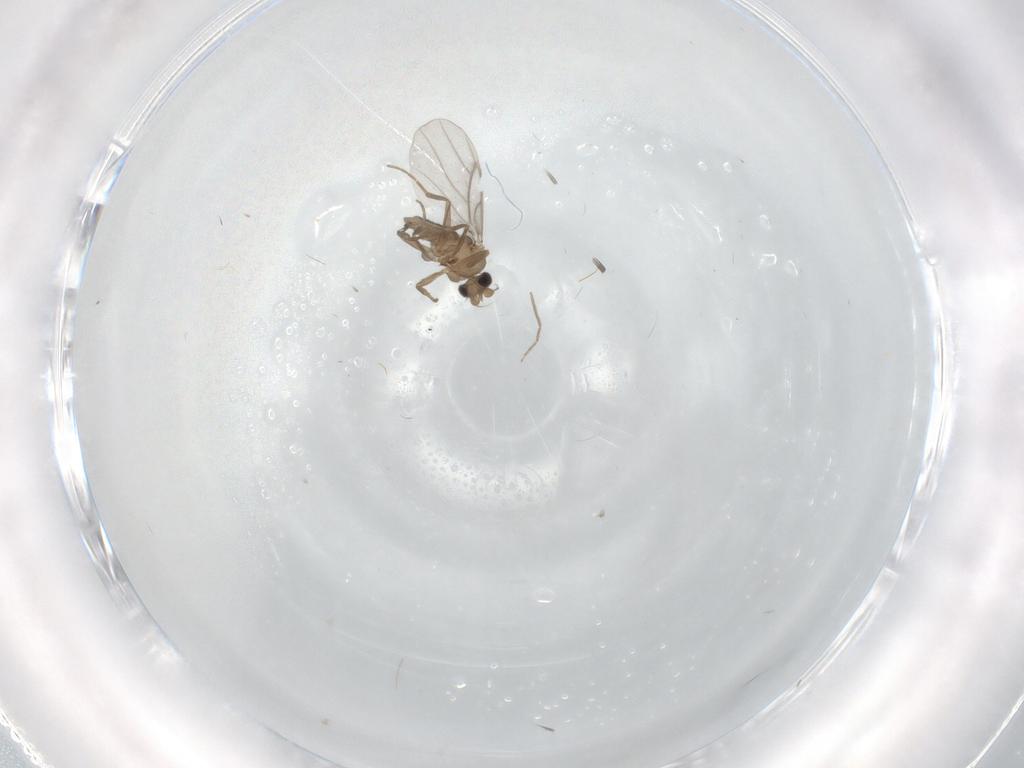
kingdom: Animalia
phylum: Arthropoda
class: Insecta
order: Diptera
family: Chironomidae
